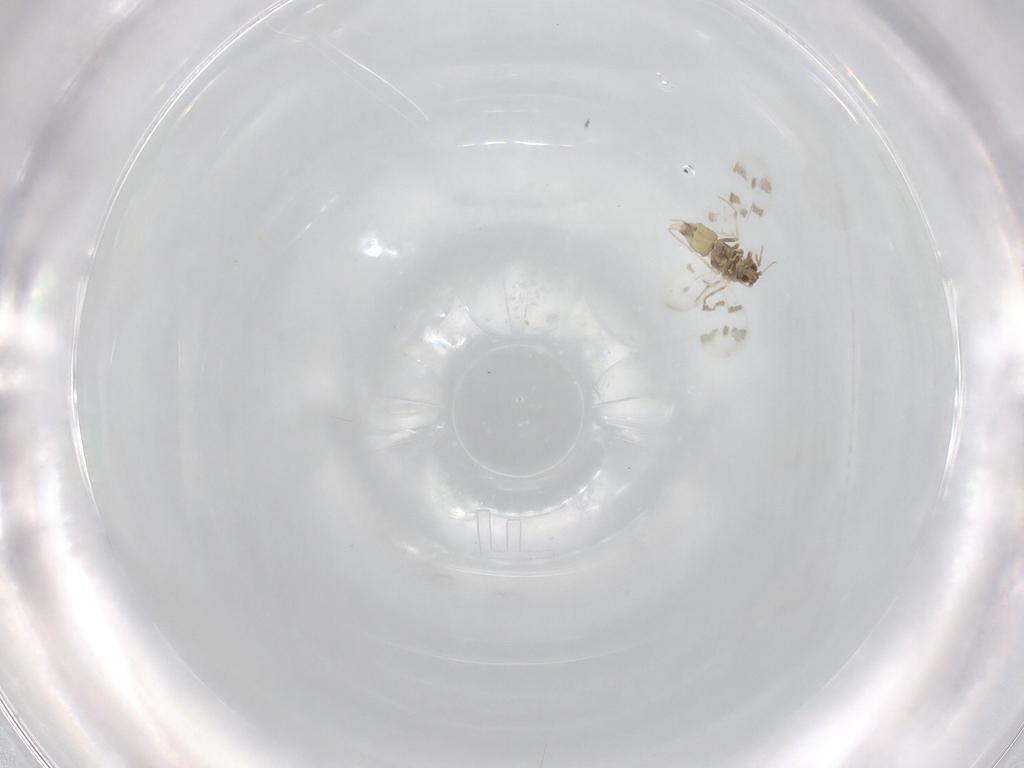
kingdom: Animalia
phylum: Arthropoda
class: Insecta
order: Hemiptera
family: Aleyrodidae
